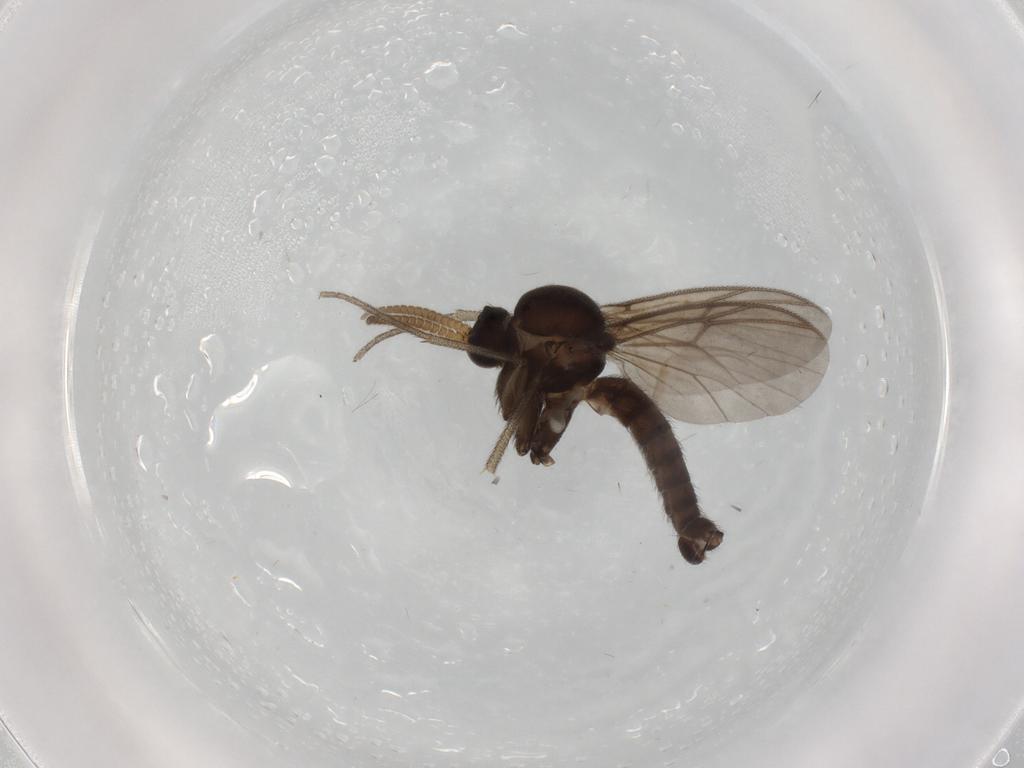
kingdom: Animalia
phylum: Arthropoda
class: Insecta
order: Diptera
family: Mycetophilidae
